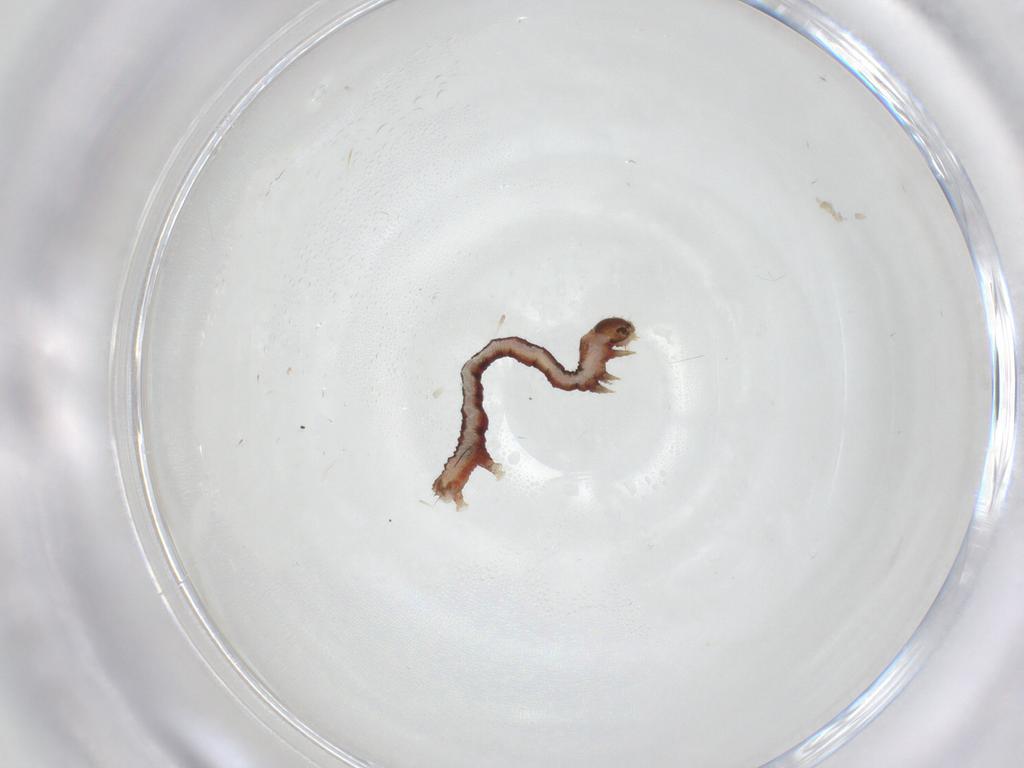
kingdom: Animalia
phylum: Arthropoda
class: Insecta
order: Lepidoptera
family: Geometridae
